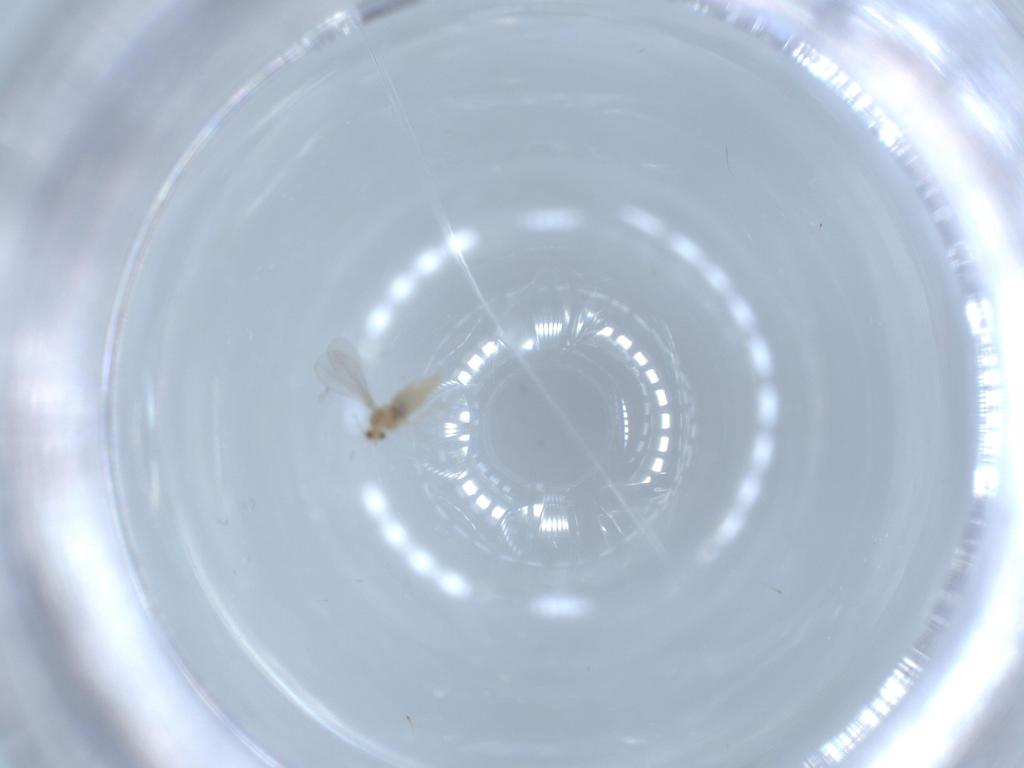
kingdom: Animalia
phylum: Arthropoda
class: Insecta
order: Diptera
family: Cecidomyiidae
